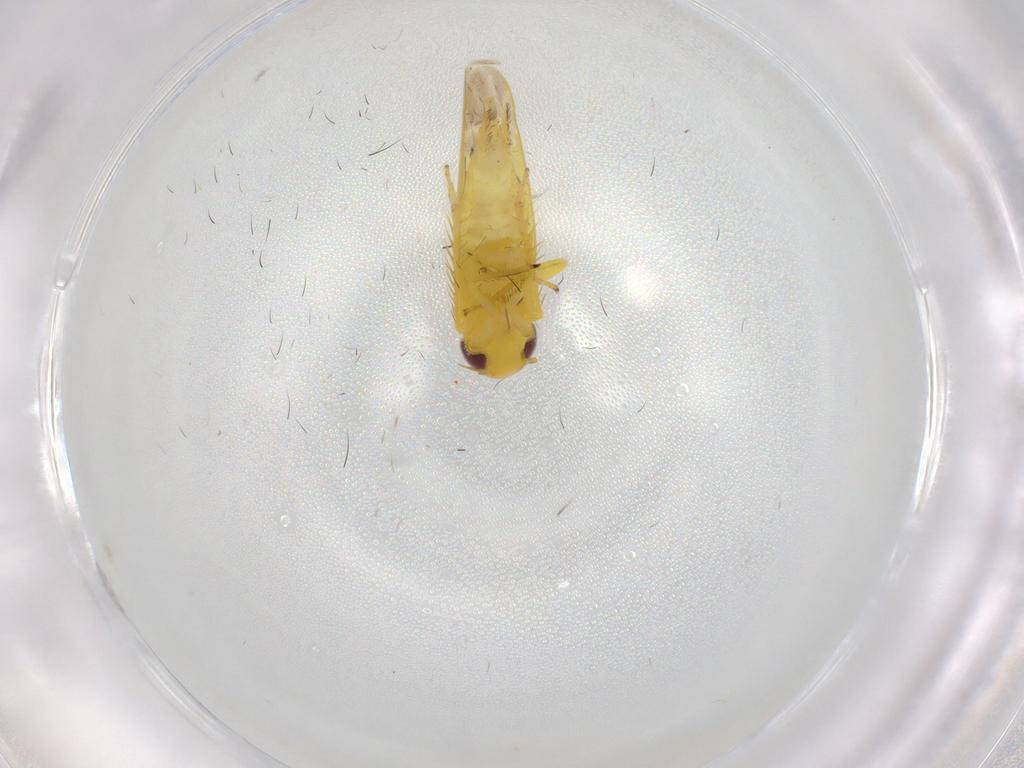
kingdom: Animalia
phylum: Arthropoda
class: Insecta
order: Hemiptera
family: Cicadellidae
